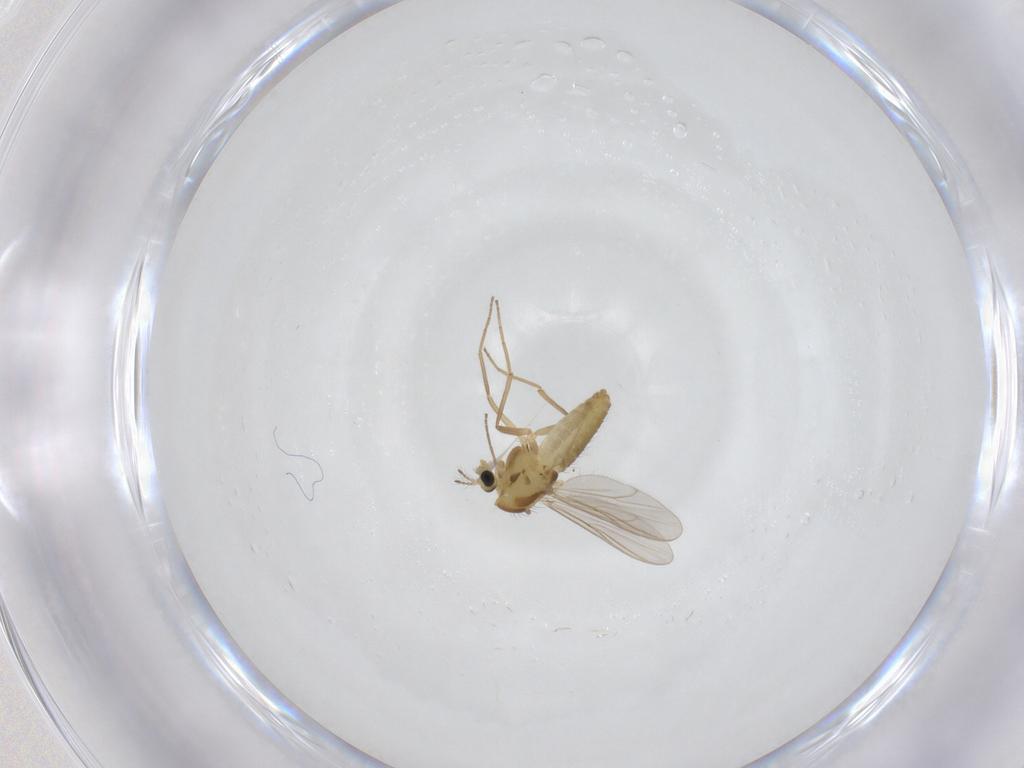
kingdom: Animalia
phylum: Arthropoda
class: Insecta
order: Diptera
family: Chironomidae
